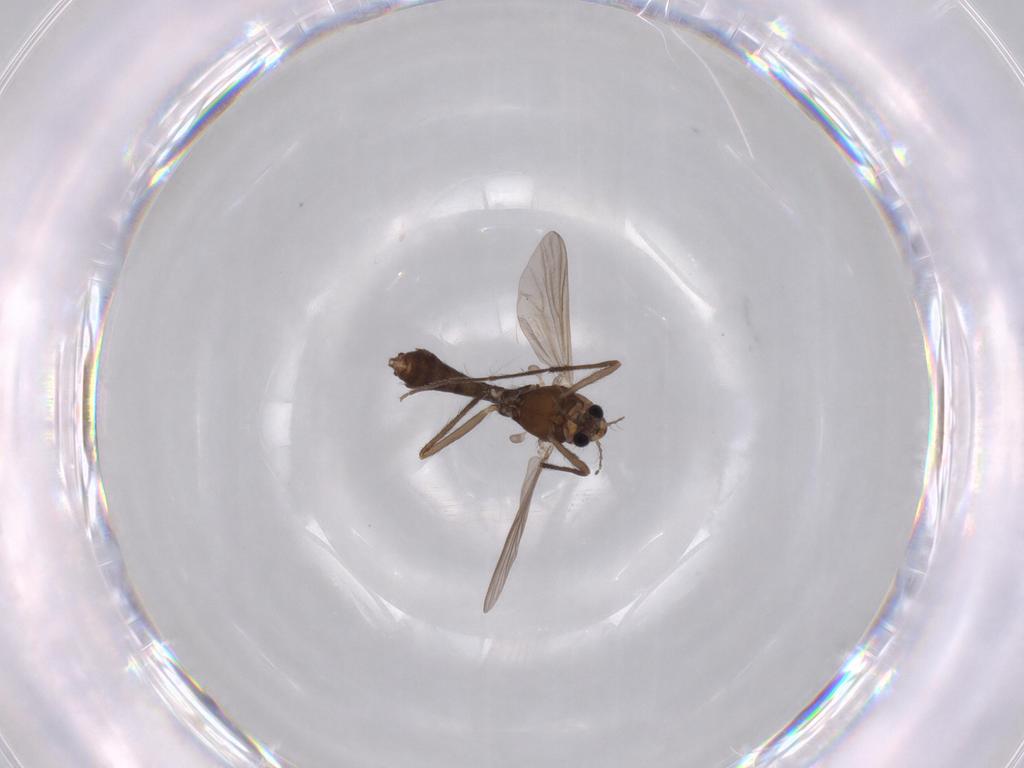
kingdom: Animalia
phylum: Arthropoda
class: Insecta
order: Diptera
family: Chironomidae
